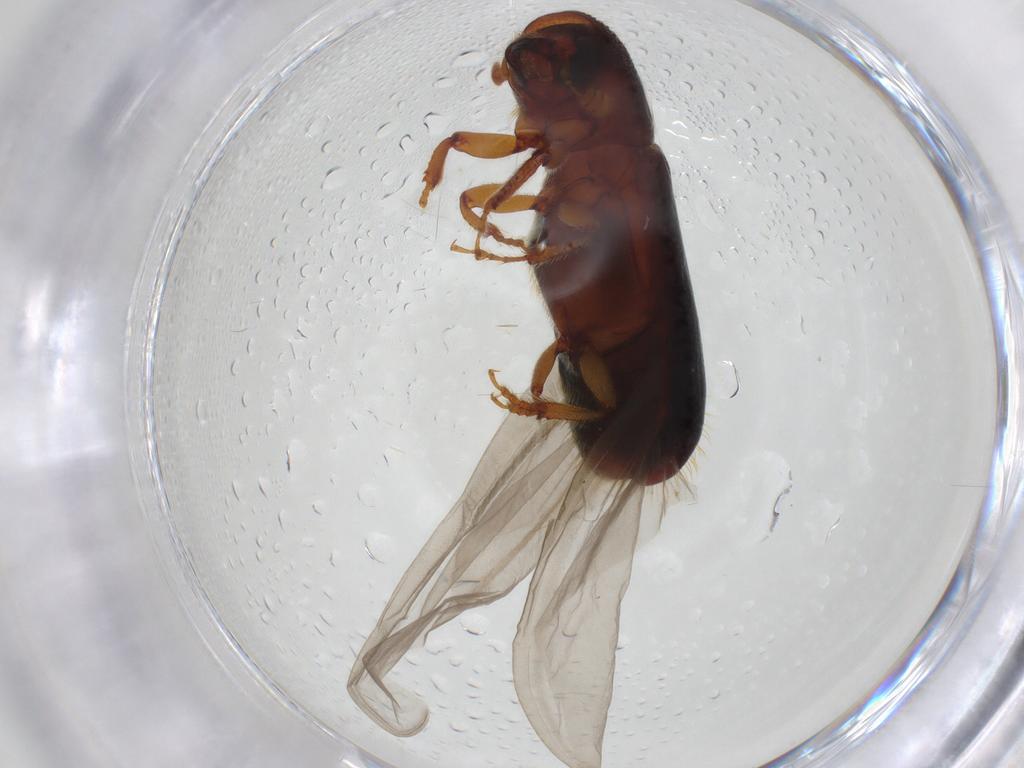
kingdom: Animalia
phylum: Arthropoda
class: Insecta
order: Coleoptera
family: Curculionidae
